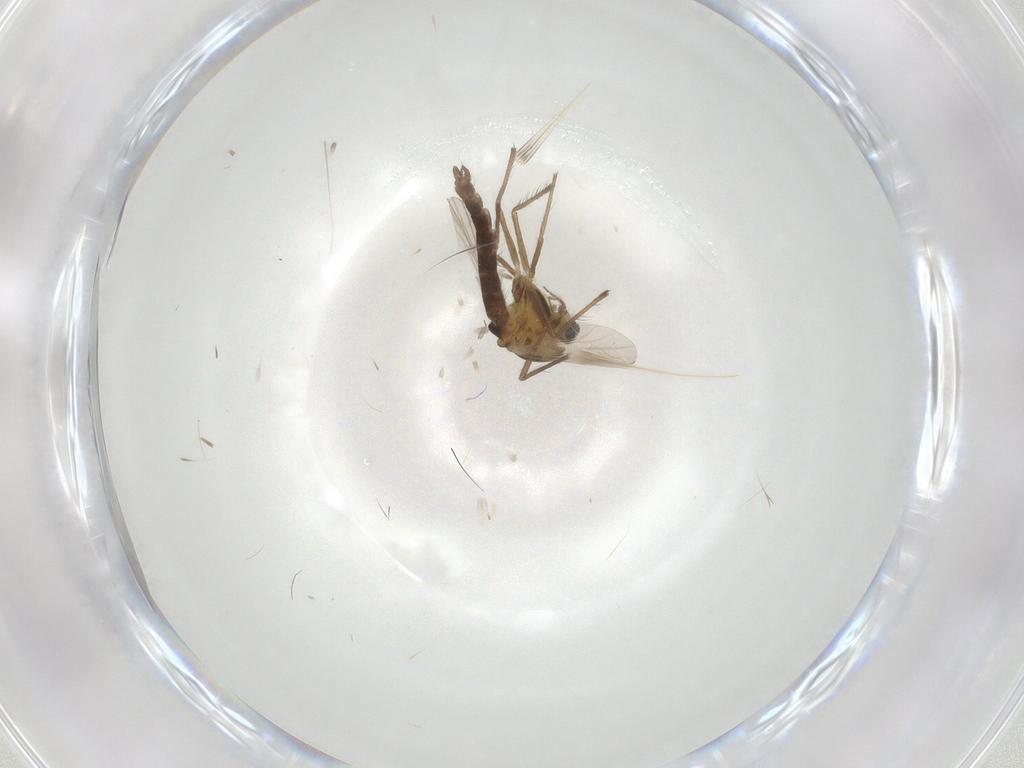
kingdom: Animalia
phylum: Arthropoda
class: Insecta
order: Diptera
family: Chironomidae
